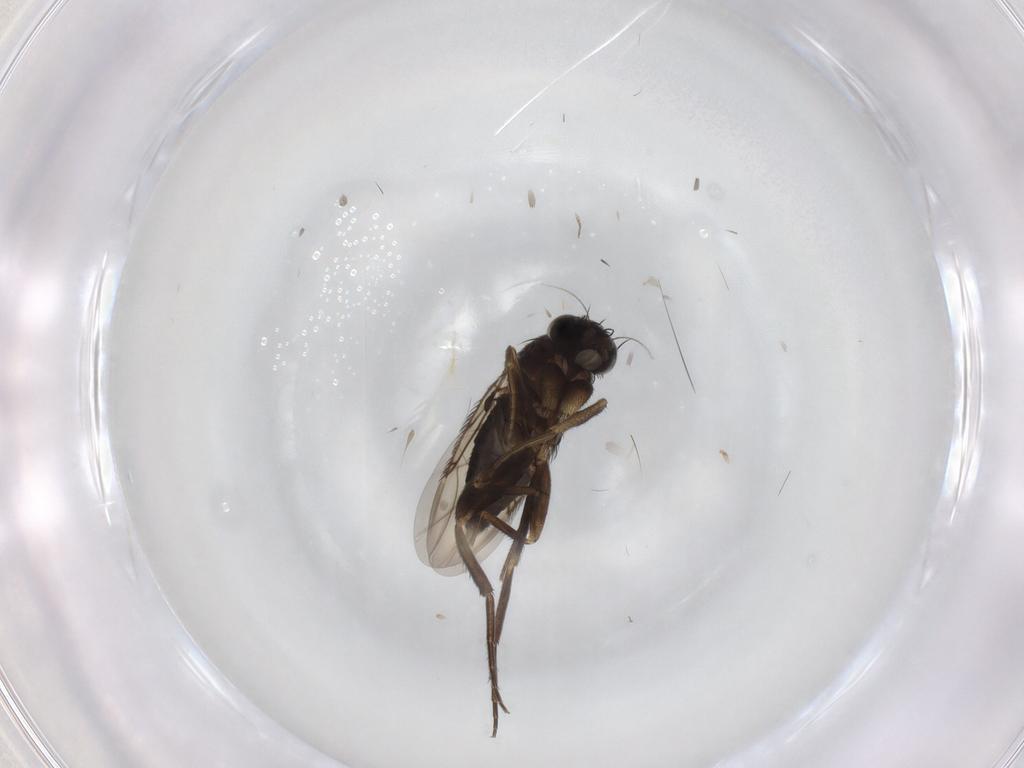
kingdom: Animalia
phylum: Arthropoda
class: Insecta
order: Diptera
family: Phoridae
